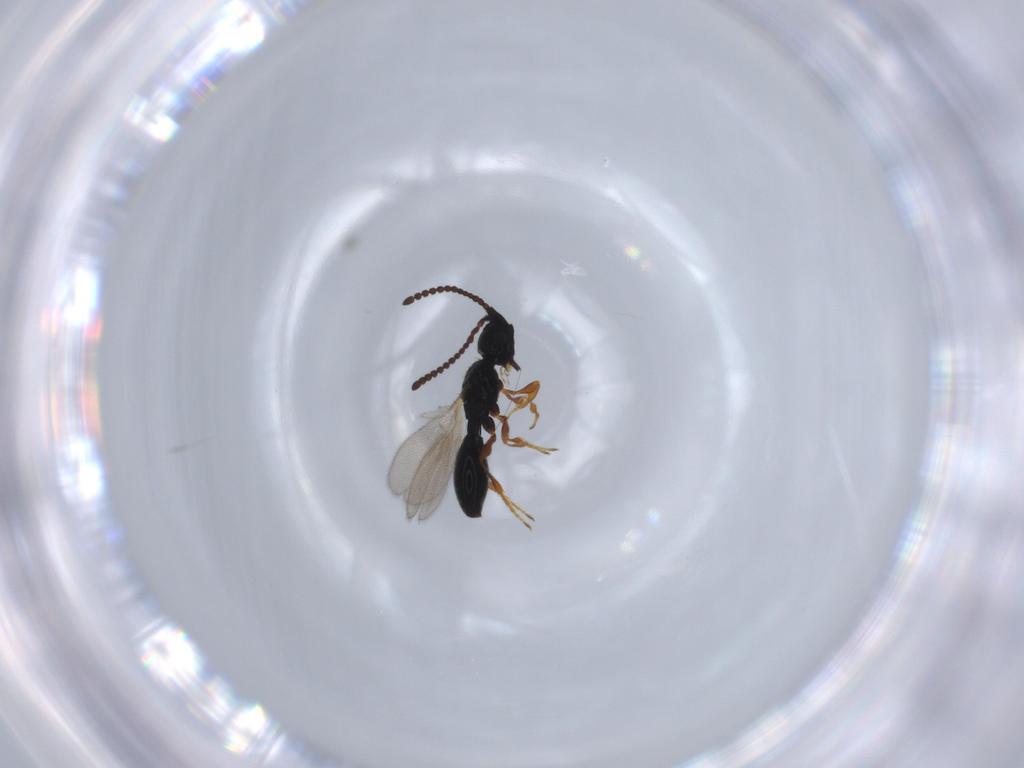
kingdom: Animalia
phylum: Arthropoda
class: Insecta
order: Hymenoptera
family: Diapriidae
